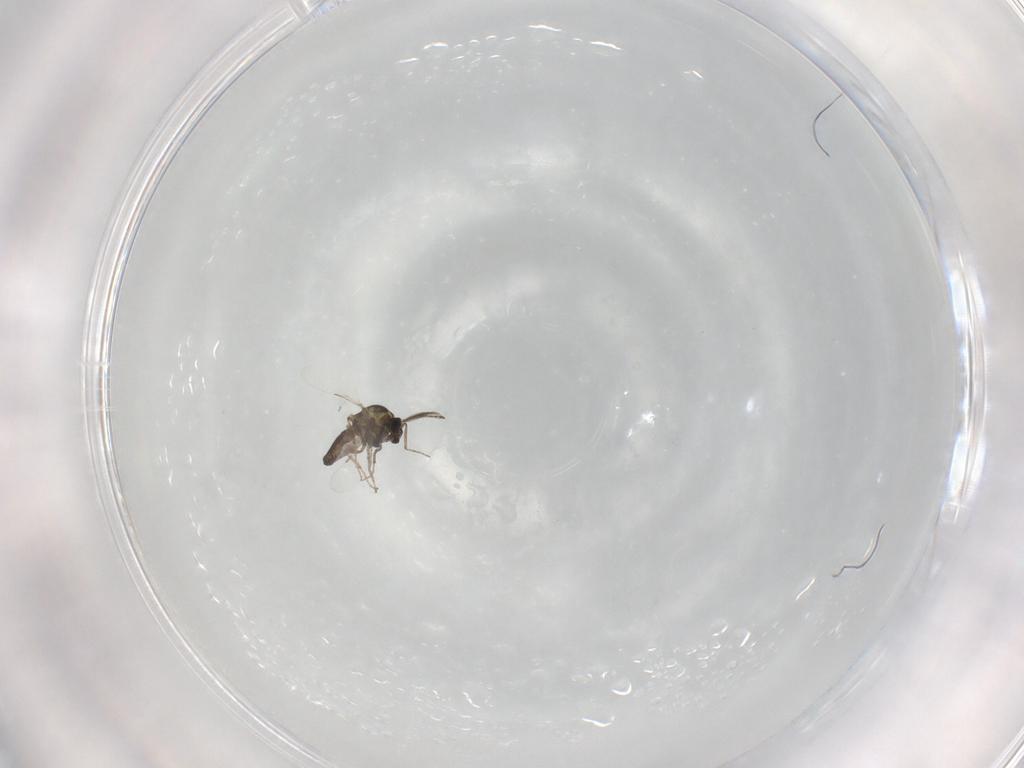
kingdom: Animalia
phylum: Arthropoda
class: Insecta
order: Diptera
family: Ceratopogonidae
